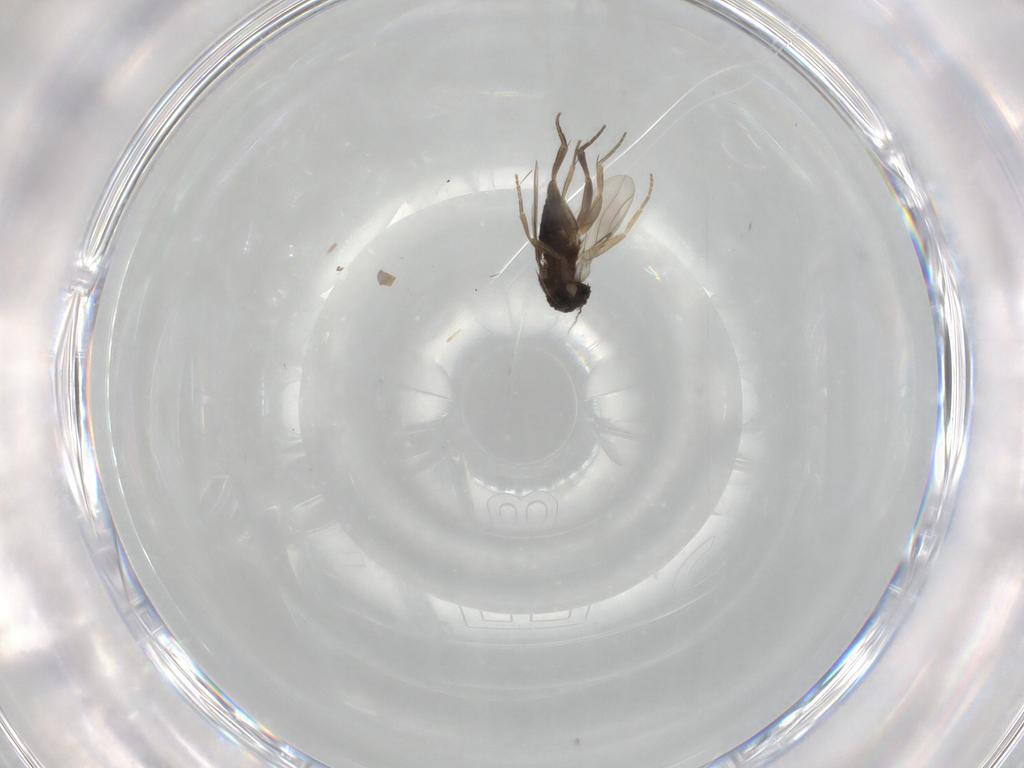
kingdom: Animalia
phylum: Arthropoda
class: Insecta
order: Diptera
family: Phoridae
